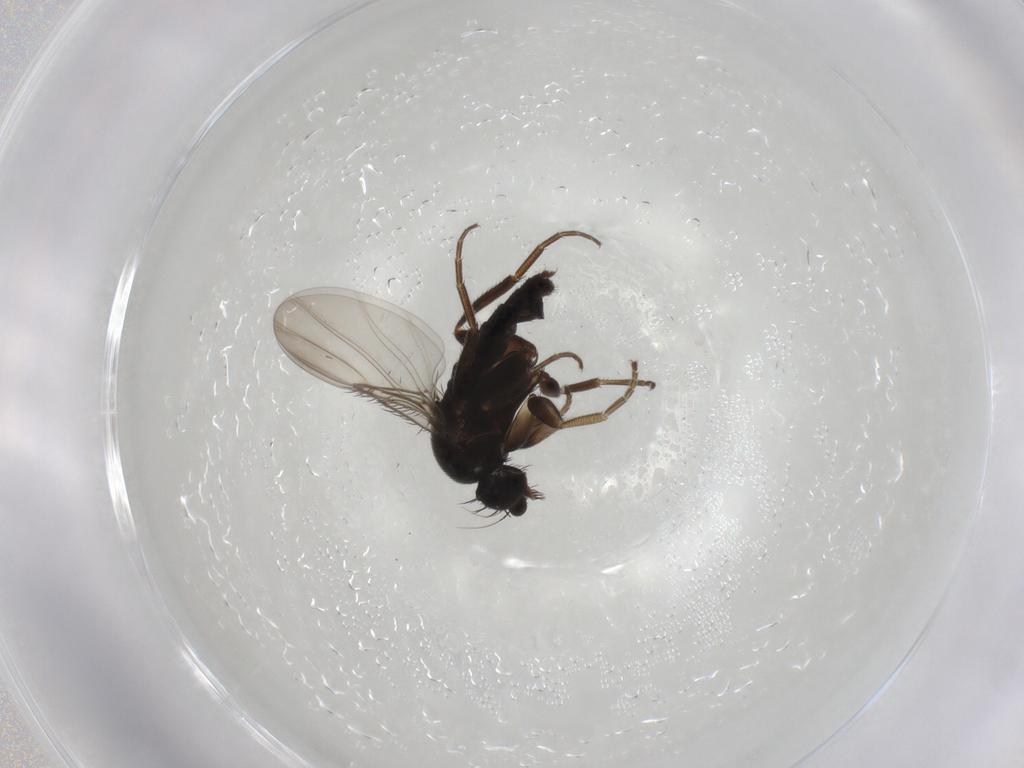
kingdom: Animalia
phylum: Arthropoda
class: Insecta
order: Diptera
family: Phoridae
